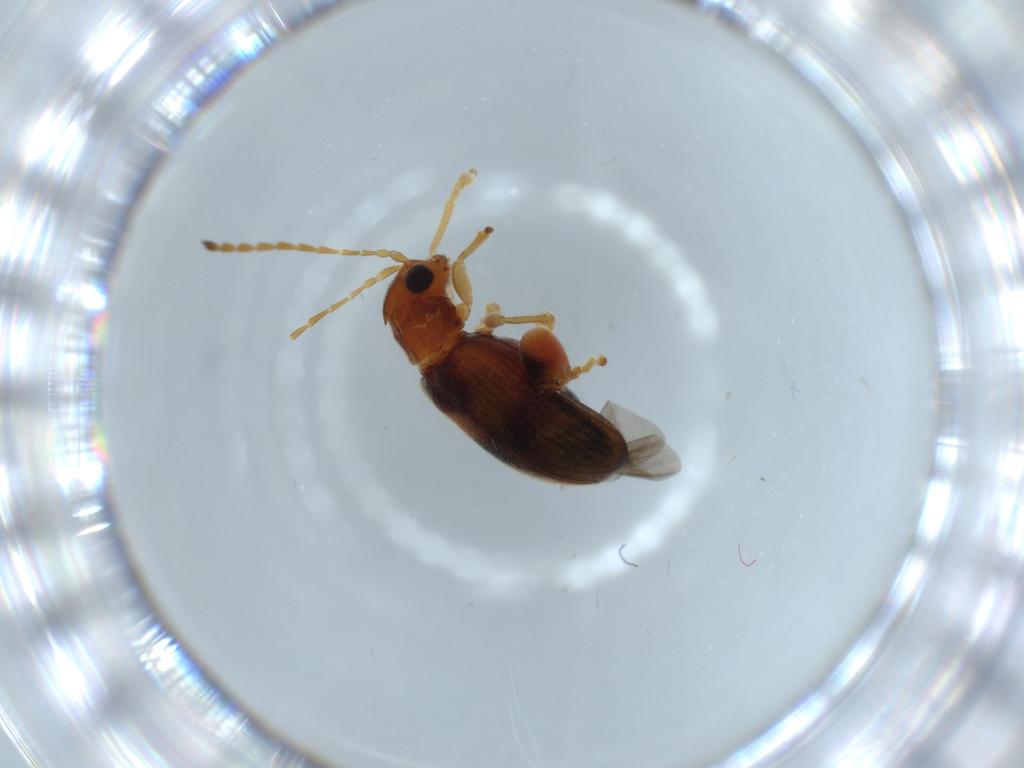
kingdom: Animalia
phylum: Arthropoda
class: Insecta
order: Coleoptera
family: Chrysomelidae
